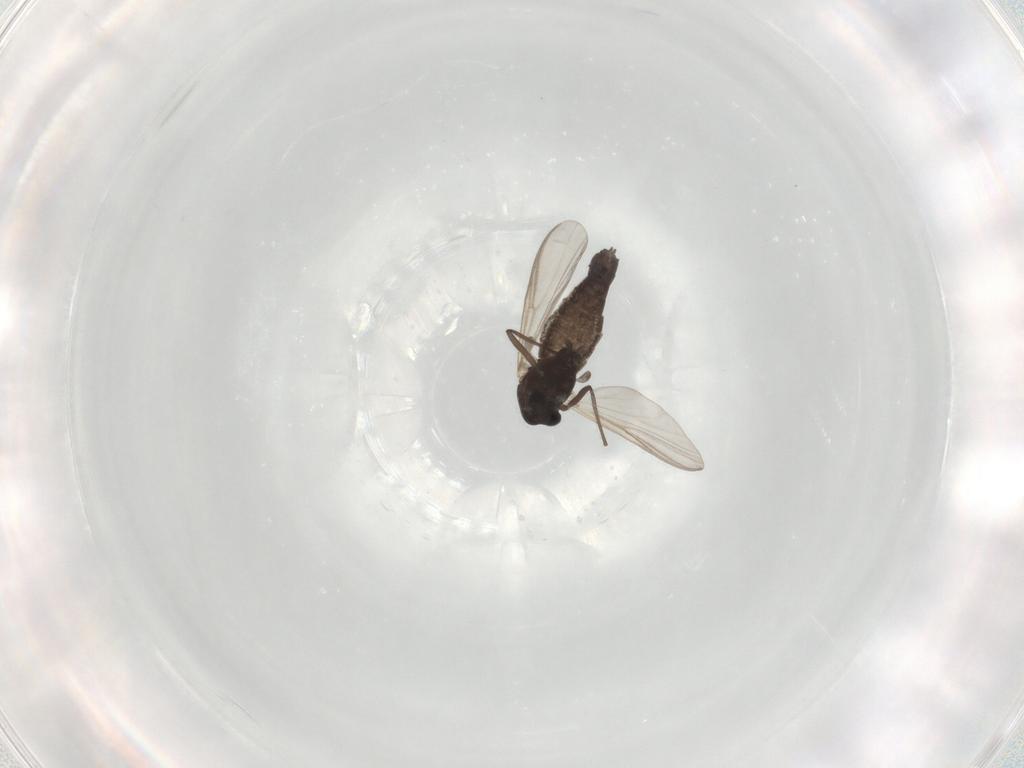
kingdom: Animalia
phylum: Arthropoda
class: Insecta
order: Diptera
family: Chironomidae
